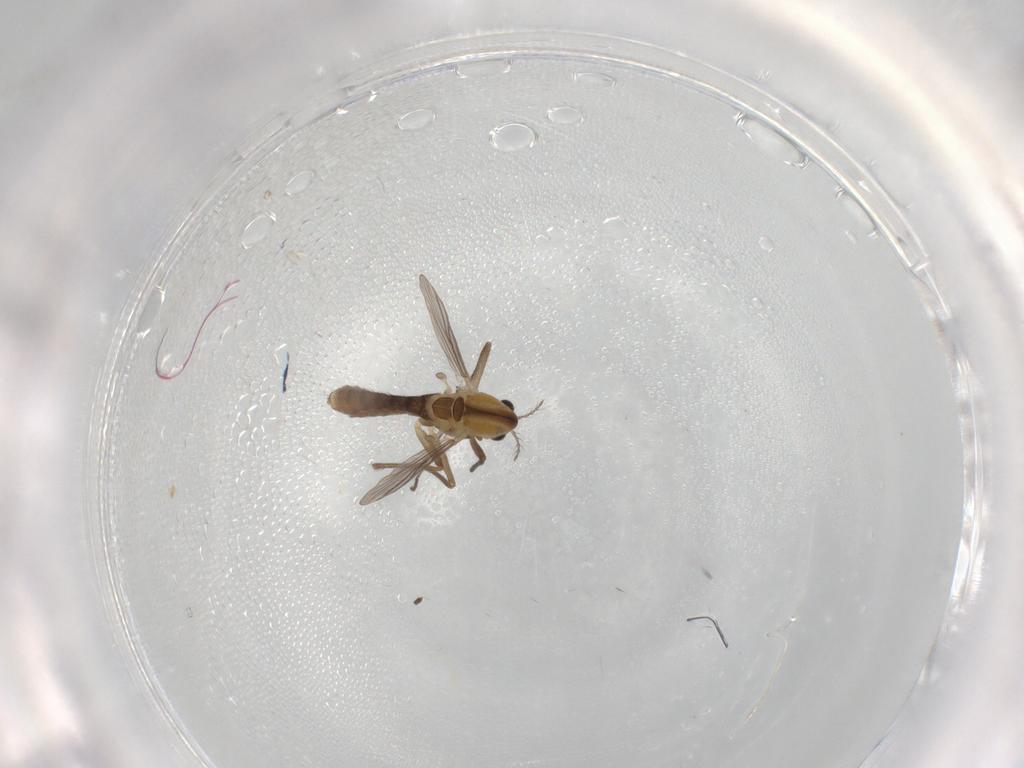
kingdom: Animalia
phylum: Arthropoda
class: Insecta
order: Diptera
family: Chironomidae
